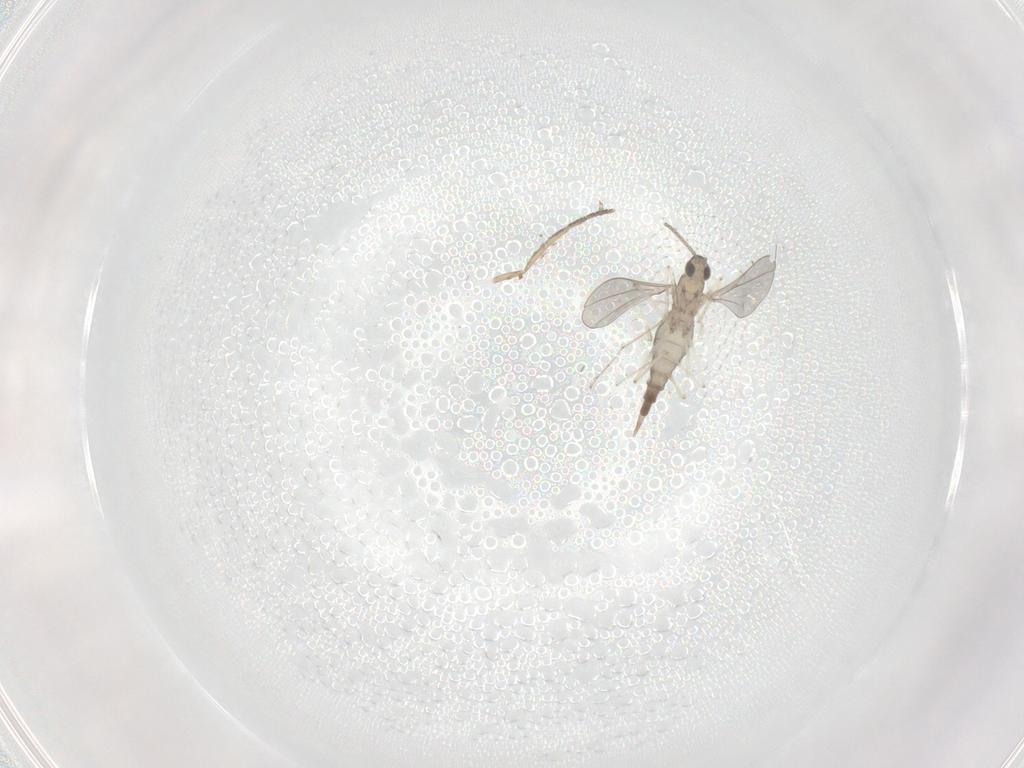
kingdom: Animalia
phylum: Arthropoda
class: Insecta
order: Diptera
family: Cecidomyiidae
